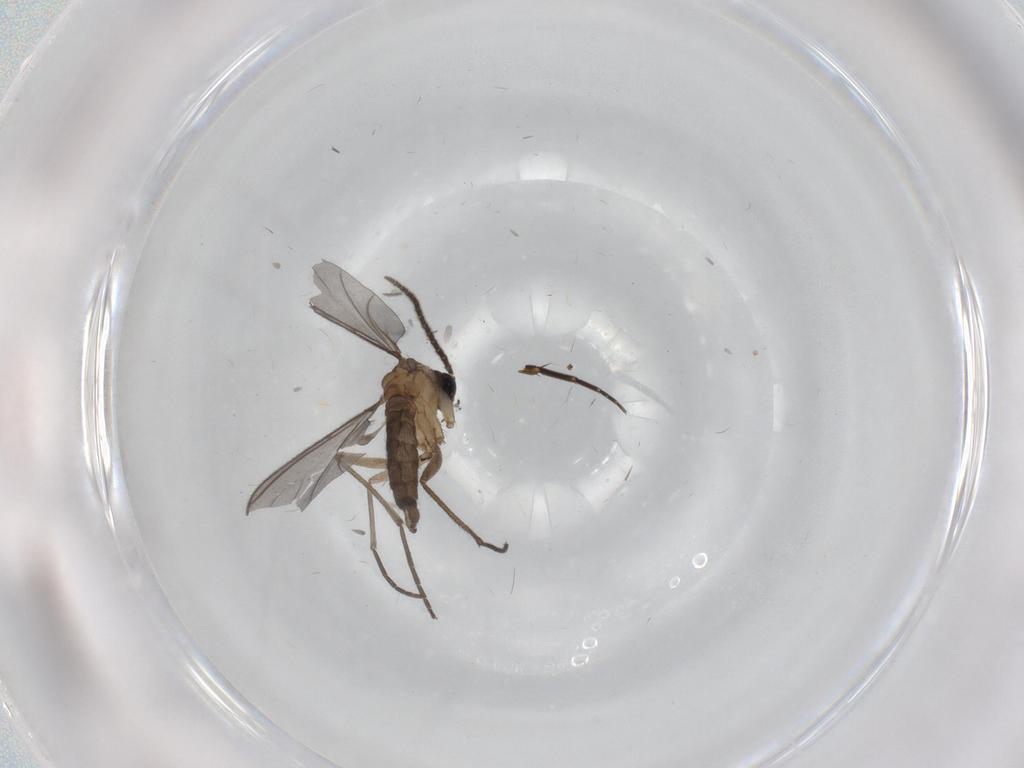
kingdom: Animalia
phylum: Arthropoda
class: Insecta
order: Diptera
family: Sciaridae
